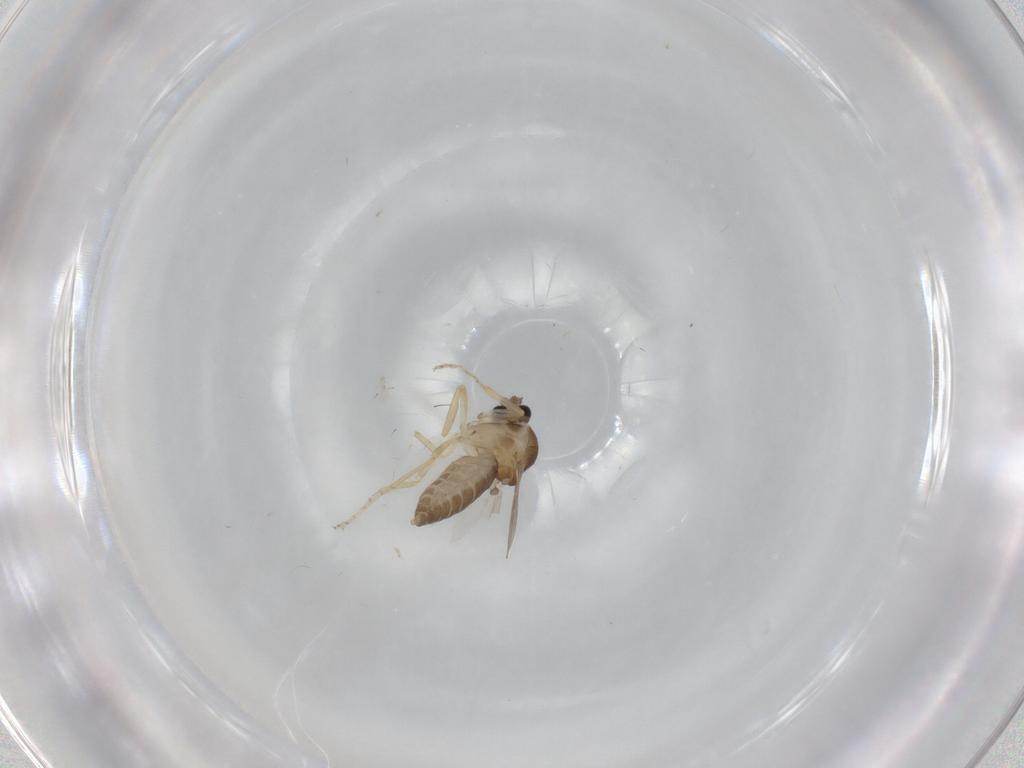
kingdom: Animalia
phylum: Arthropoda
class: Insecta
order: Diptera
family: Ceratopogonidae
